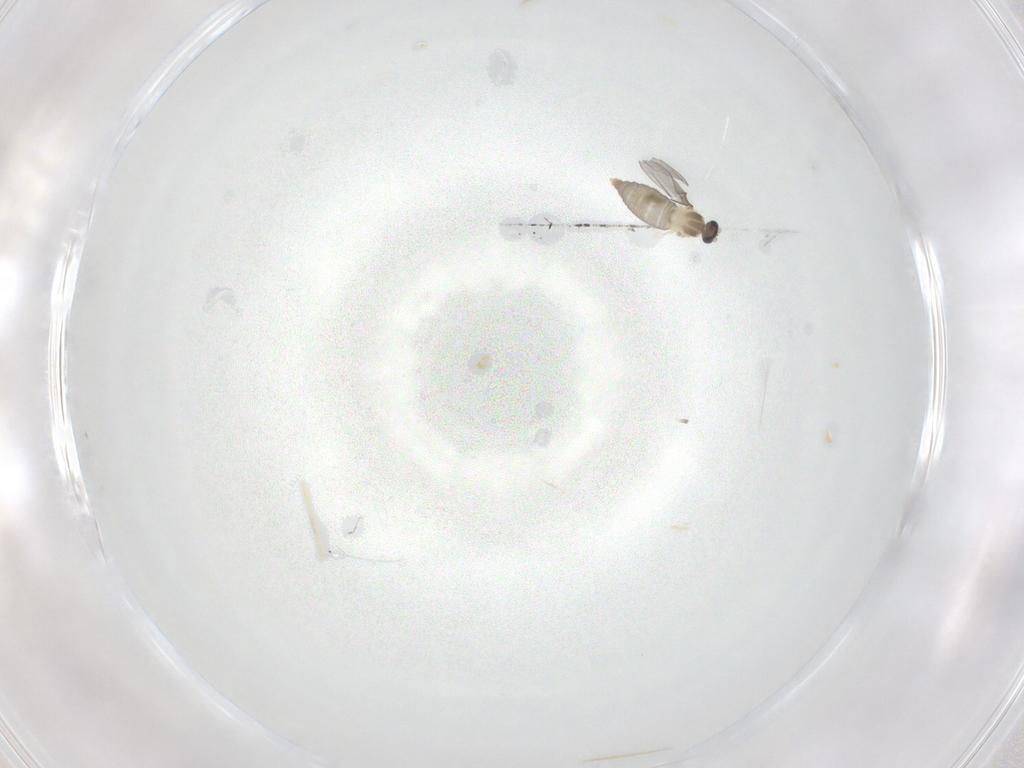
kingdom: Animalia
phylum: Arthropoda
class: Insecta
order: Diptera
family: Cecidomyiidae
